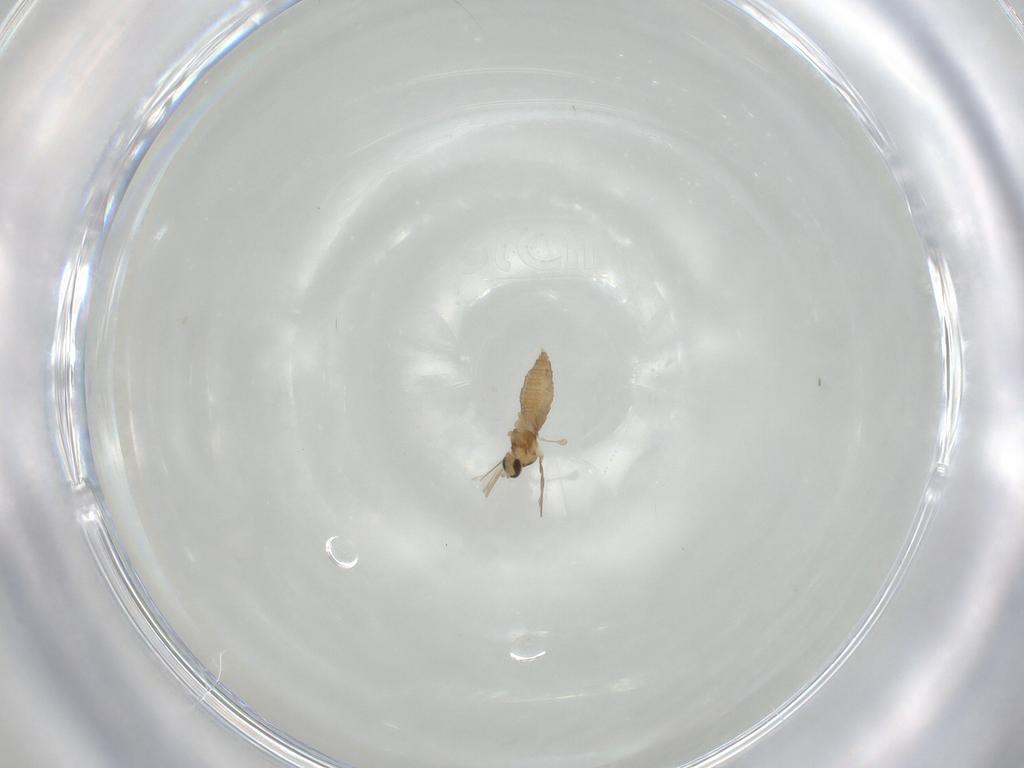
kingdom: Animalia
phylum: Arthropoda
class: Insecta
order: Diptera
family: Cecidomyiidae
